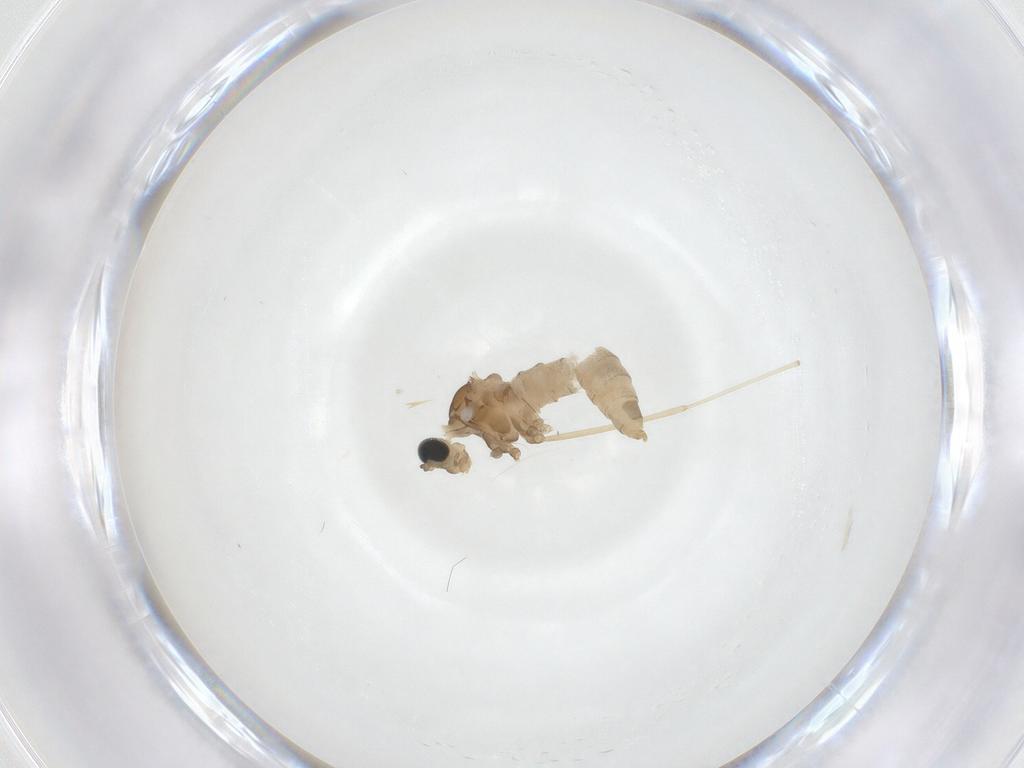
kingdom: Animalia
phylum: Arthropoda
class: Insecta
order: Diptera
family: Cecidomyiidae
